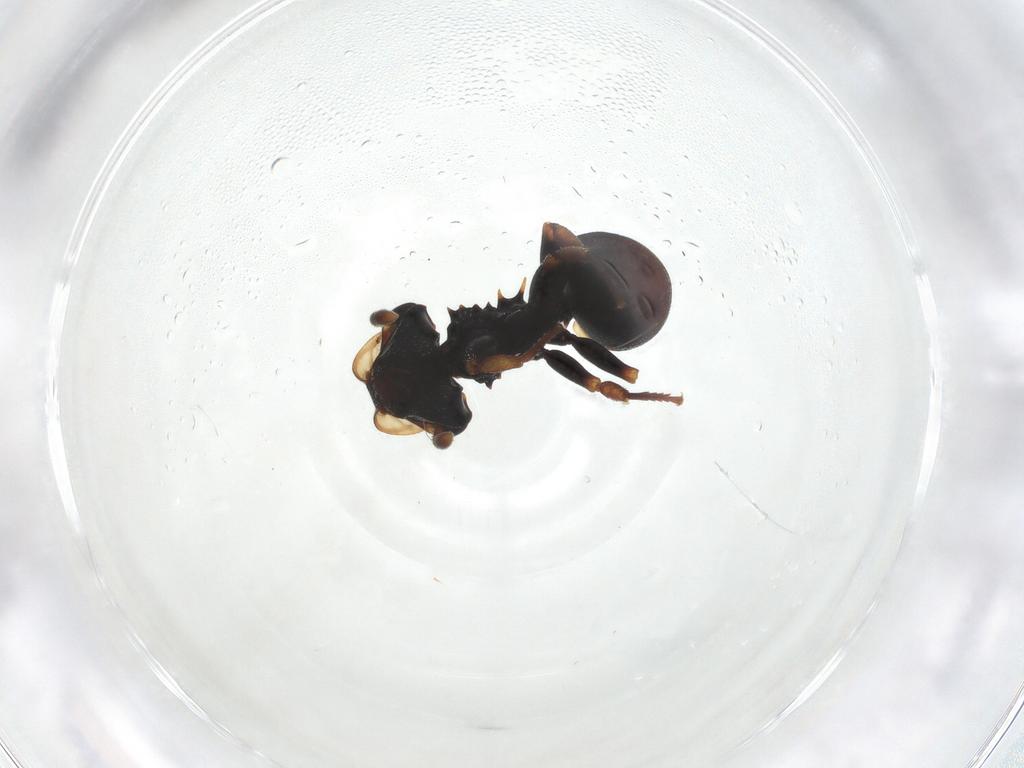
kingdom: Animalia
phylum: Arthropoda
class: Insecta
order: Hymenoptera
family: Formicidae
